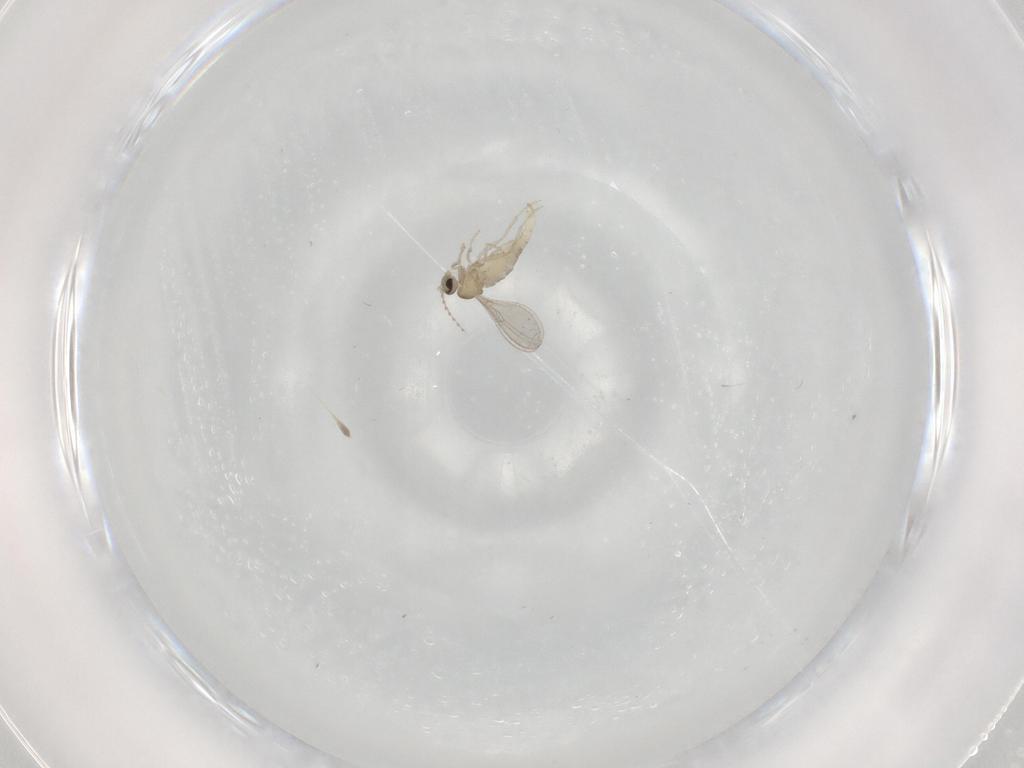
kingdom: Animalia
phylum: Arthropoda
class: Insecta
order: Diptera
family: Cecidomyiidae
